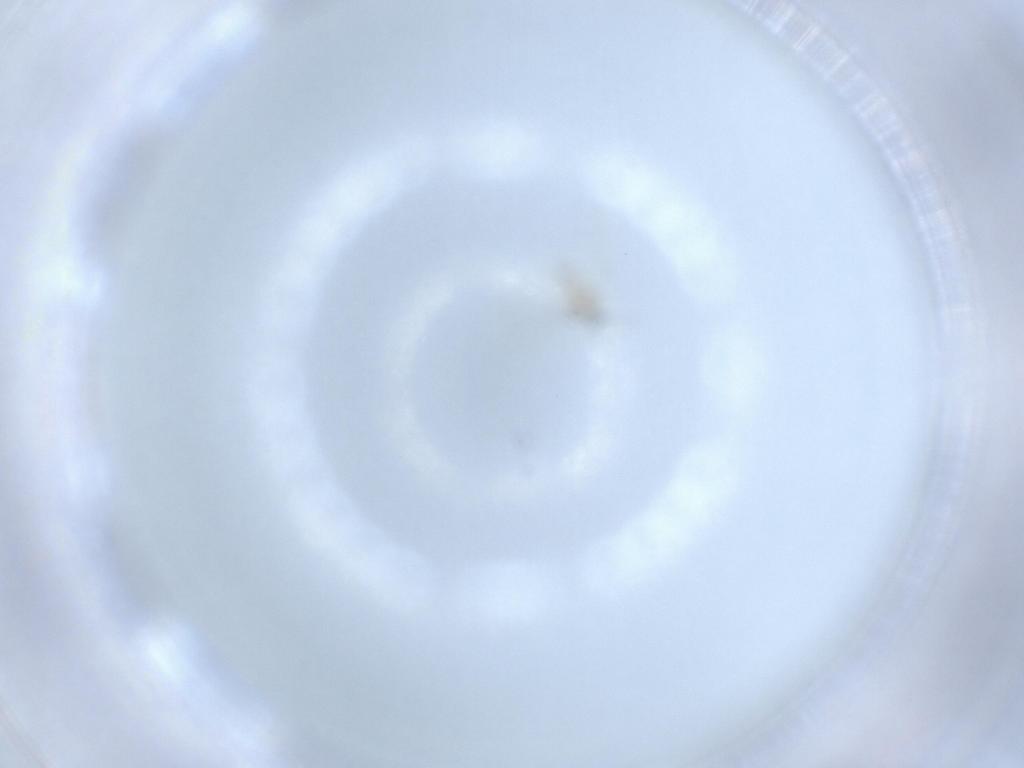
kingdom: Animalia
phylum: Arthropoda
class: Insecta
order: Diptera
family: Cecidomyiidae
